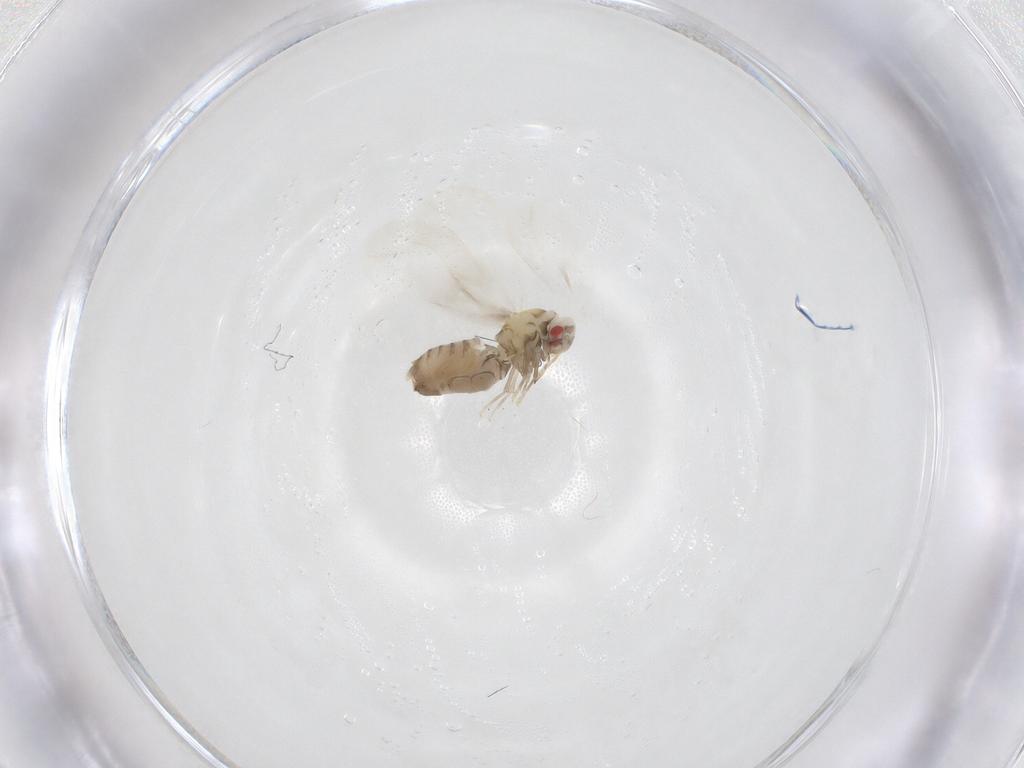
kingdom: Animalia
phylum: Arthropoda
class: Insecta
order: Hemiptera
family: Aleyrodidae
